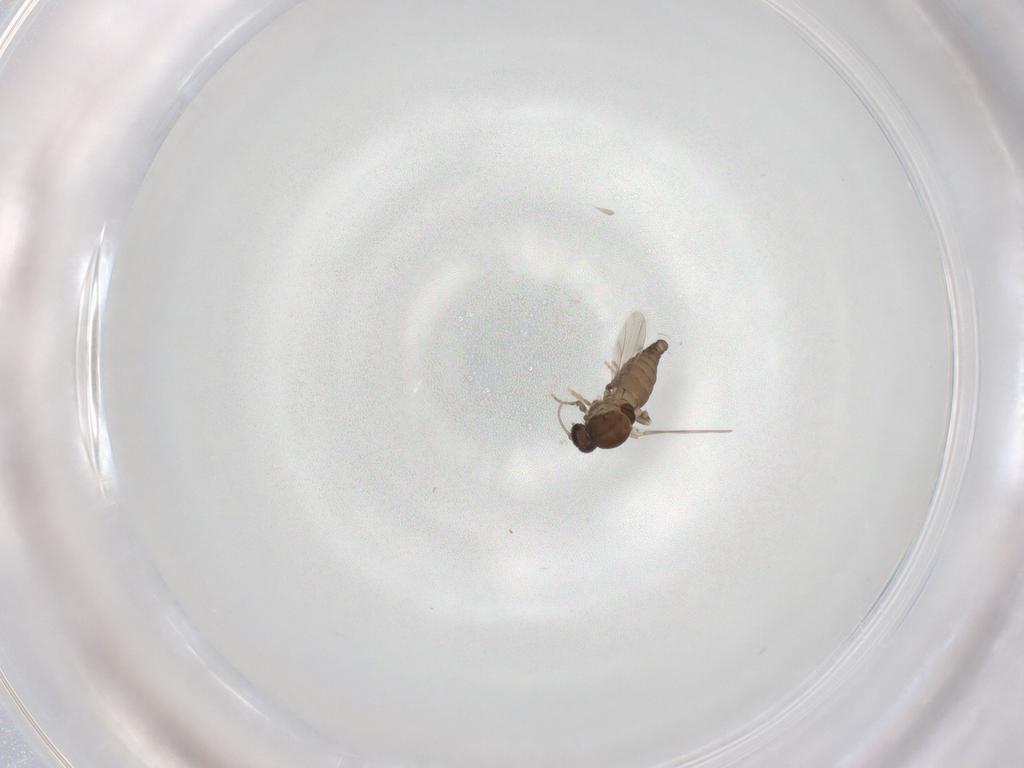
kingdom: Animalia
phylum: Arthropoda
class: Insecta
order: Diptera
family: Ceratopogonidae
